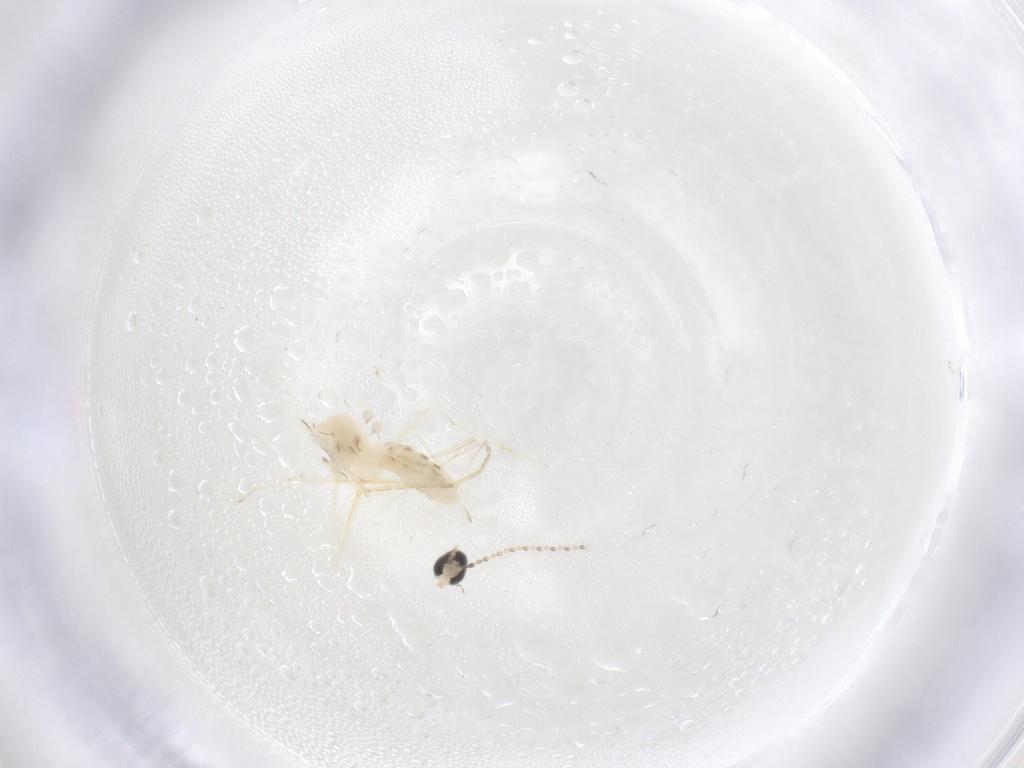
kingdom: Animalia
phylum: Arthropoda
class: Insecta
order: Diptera
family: Cecidomyiidae
